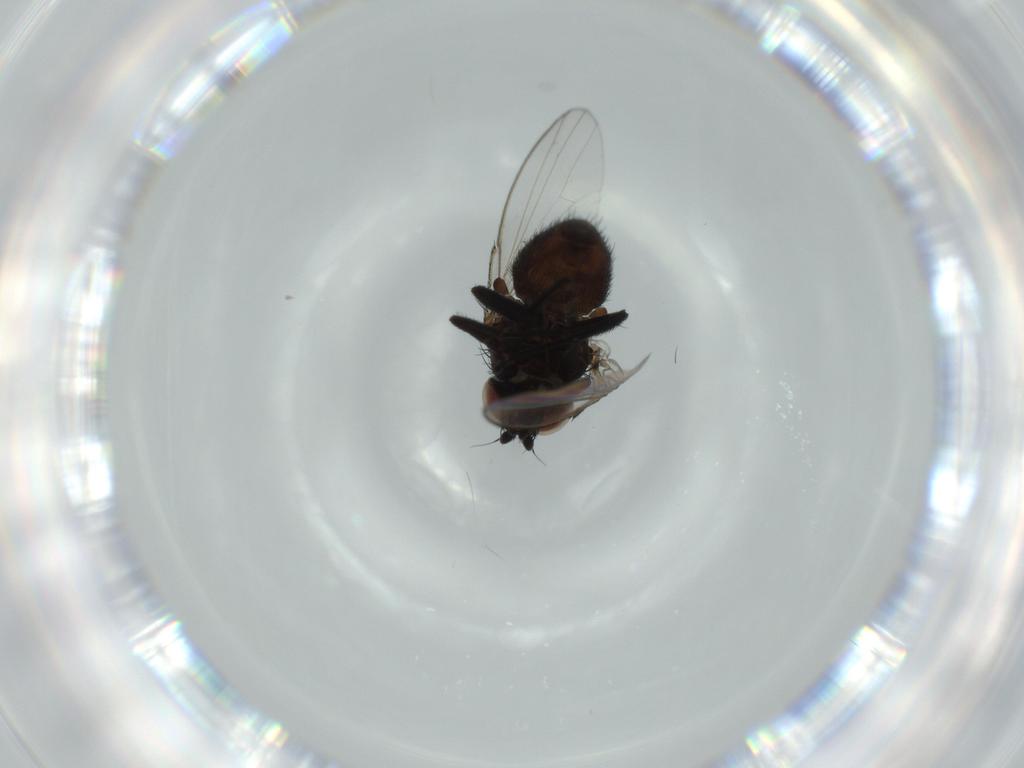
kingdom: Animalia
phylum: Arthropoda
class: Insecta
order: Diptera
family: Milichiidae
